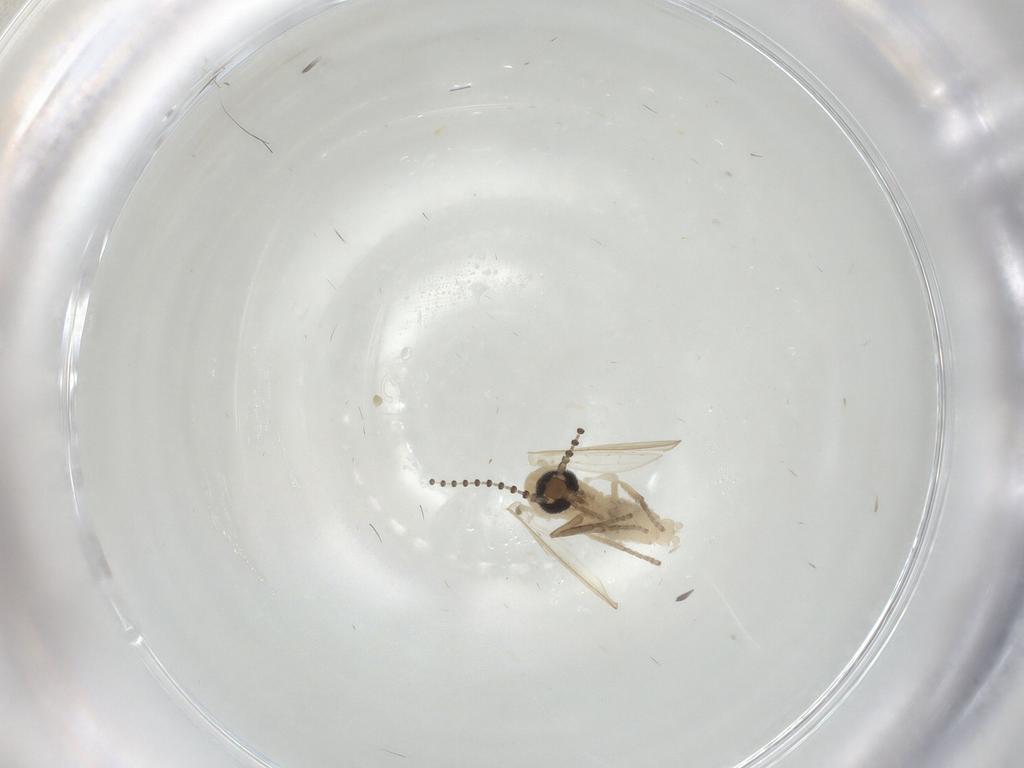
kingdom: Animalia
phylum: Arthropoda
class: Insecta
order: Diptera
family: Psychodidae
